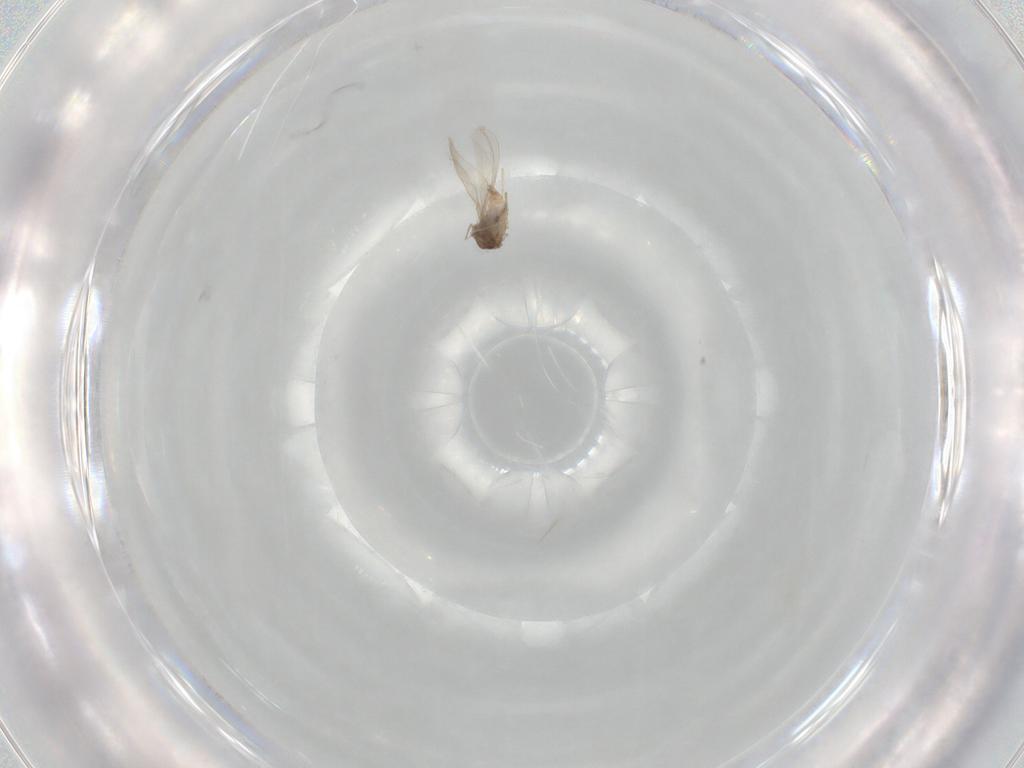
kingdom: Animalia
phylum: Arthropoda
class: Insecta
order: Diptera
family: Cecidomyiidae
